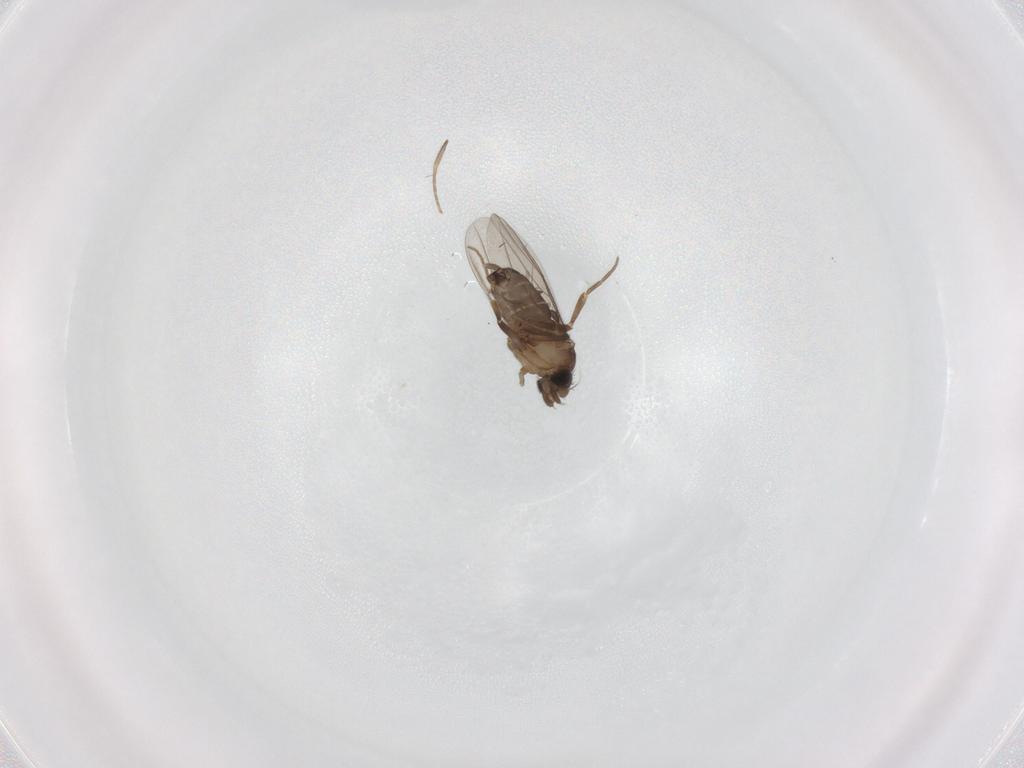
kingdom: Animalia
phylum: Arthropoda
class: Insecta
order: Diptera
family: Phoridae
